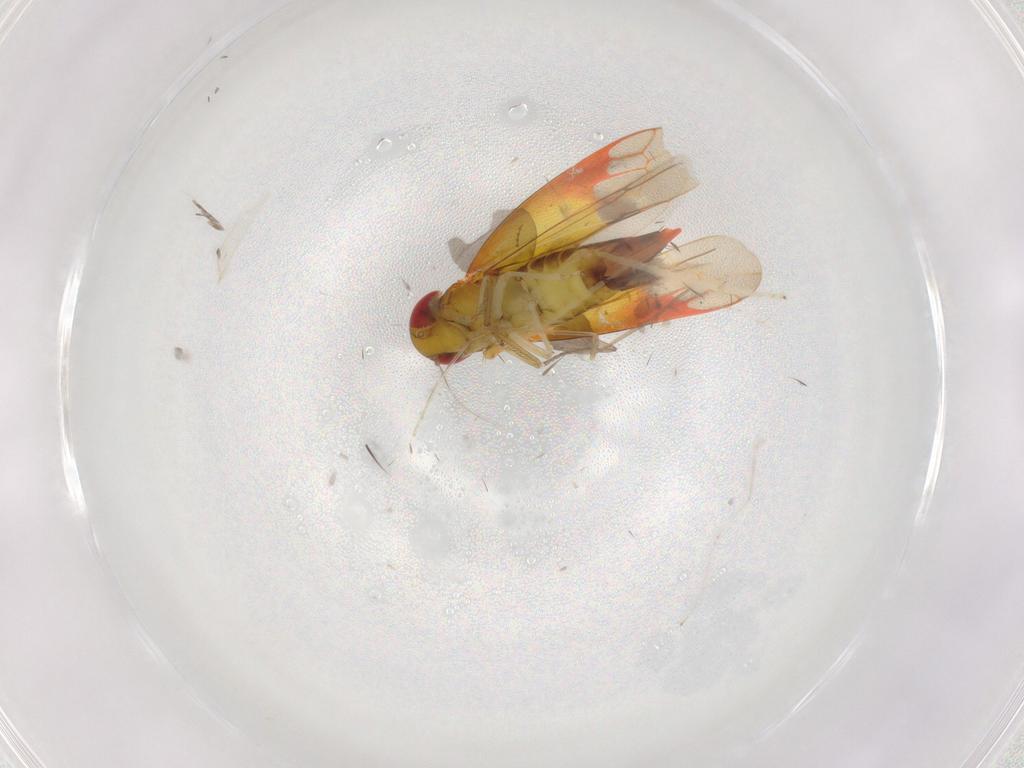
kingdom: Animalia
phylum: Arthropoda
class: Insecta
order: Hemiptera
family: Cicadellidae
